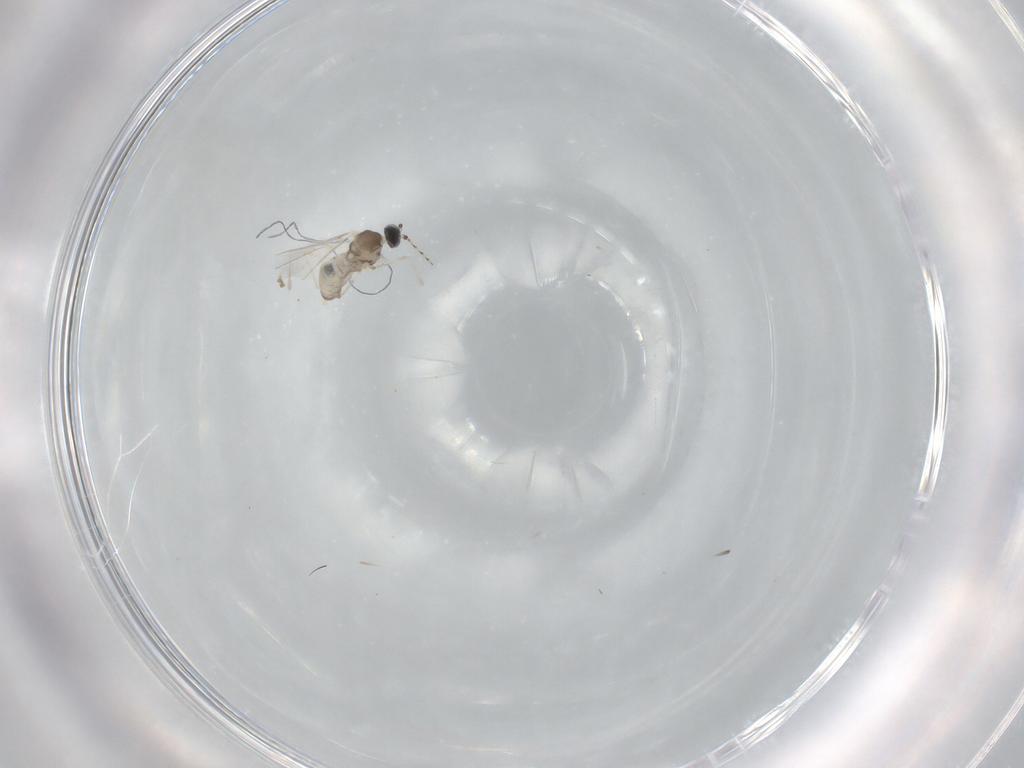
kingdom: Animalia
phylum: Arthropoda
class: Insecta
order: Diptera
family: Cecidomyiidae
